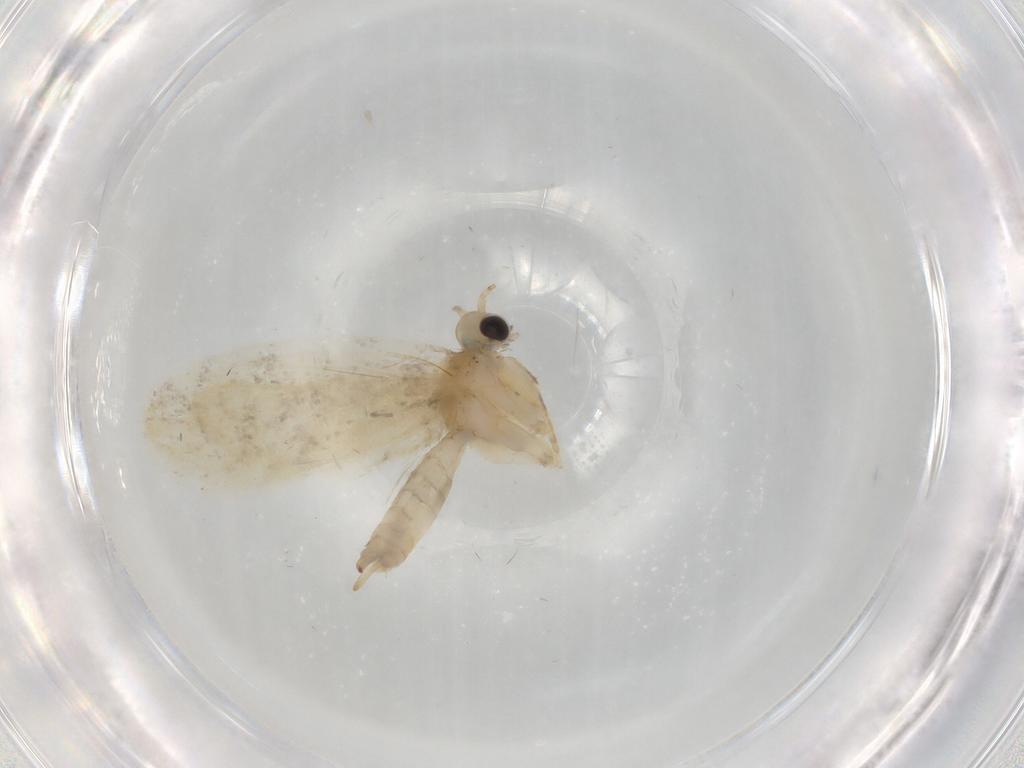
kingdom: Animalia
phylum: Arthropoda
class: Insecta
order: Lepidoptera
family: Psychidae
